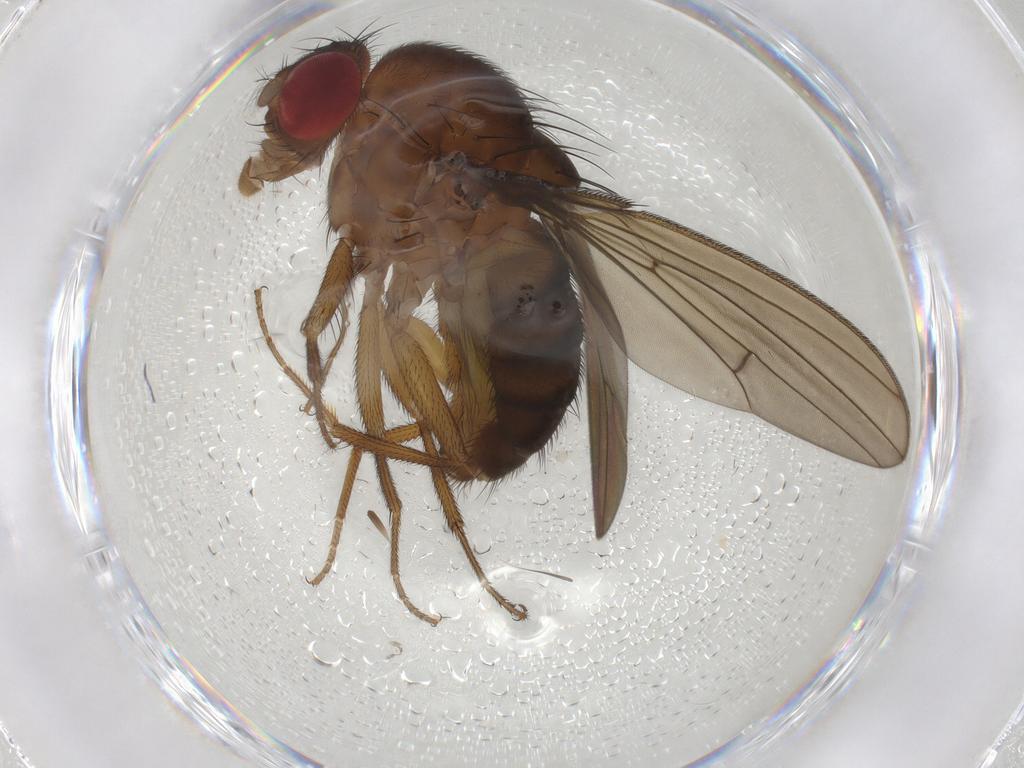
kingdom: Animalia
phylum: Arthropoda
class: Insecta
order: Diptera
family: Drosophilidae
